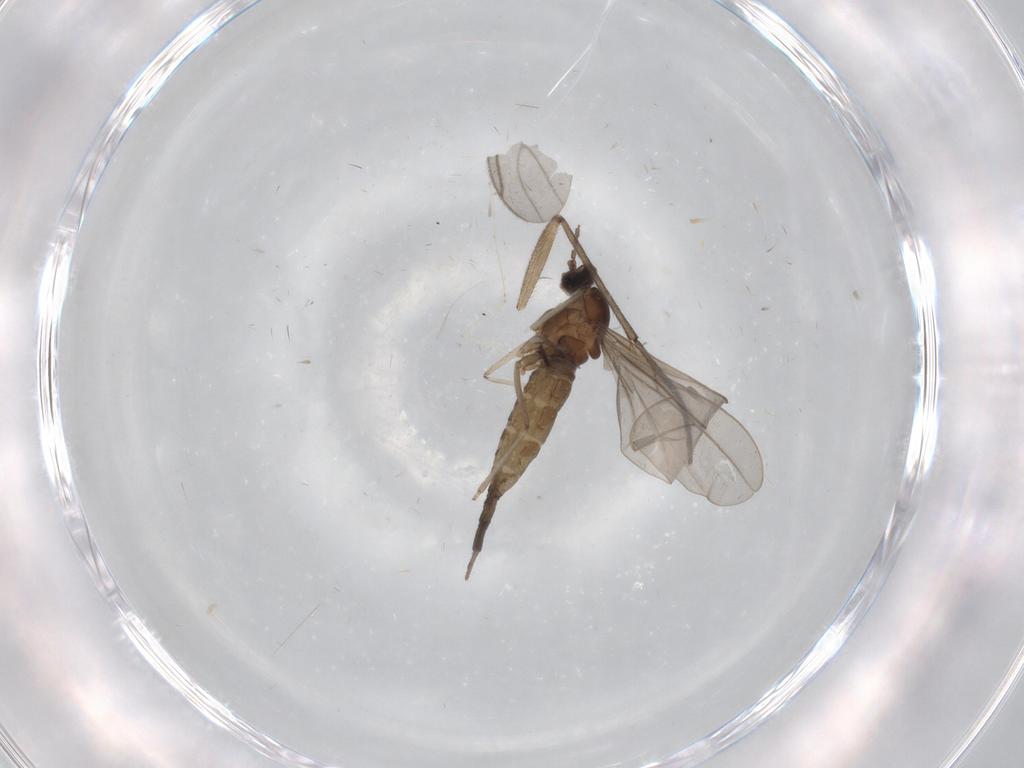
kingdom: Animalia
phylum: Arthropoda
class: Insecta
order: Diptera
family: Cecidomyiidae
